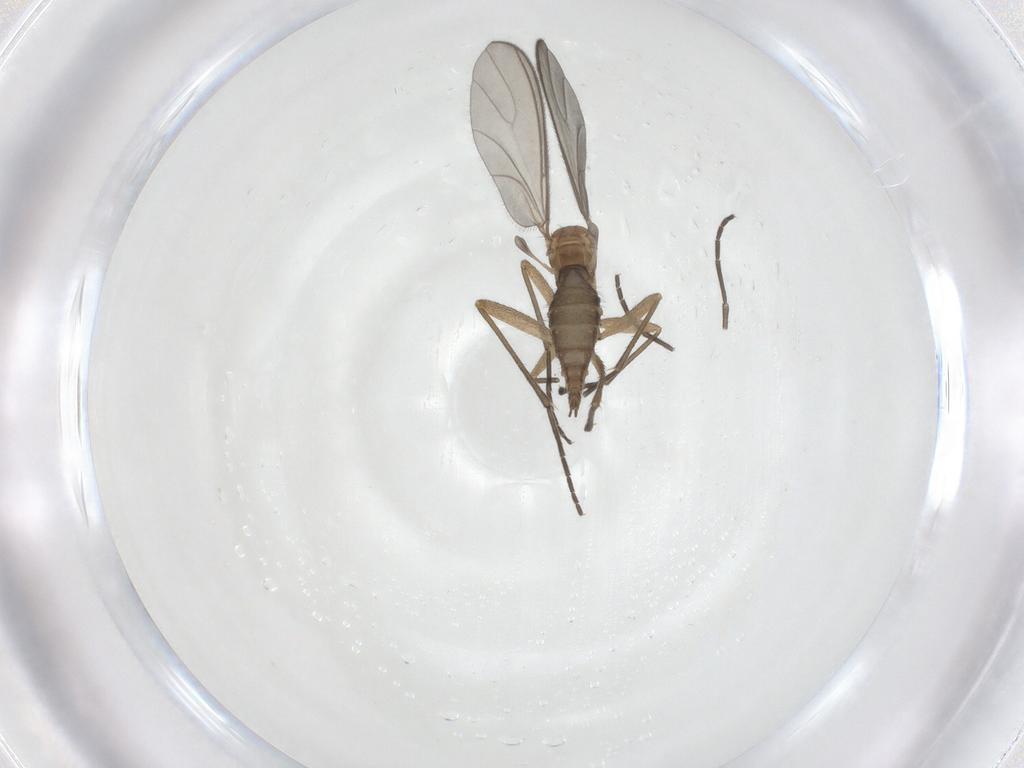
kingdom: Animalia
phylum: Arthropoda
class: Insecta
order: Diptera
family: Sciaridae
